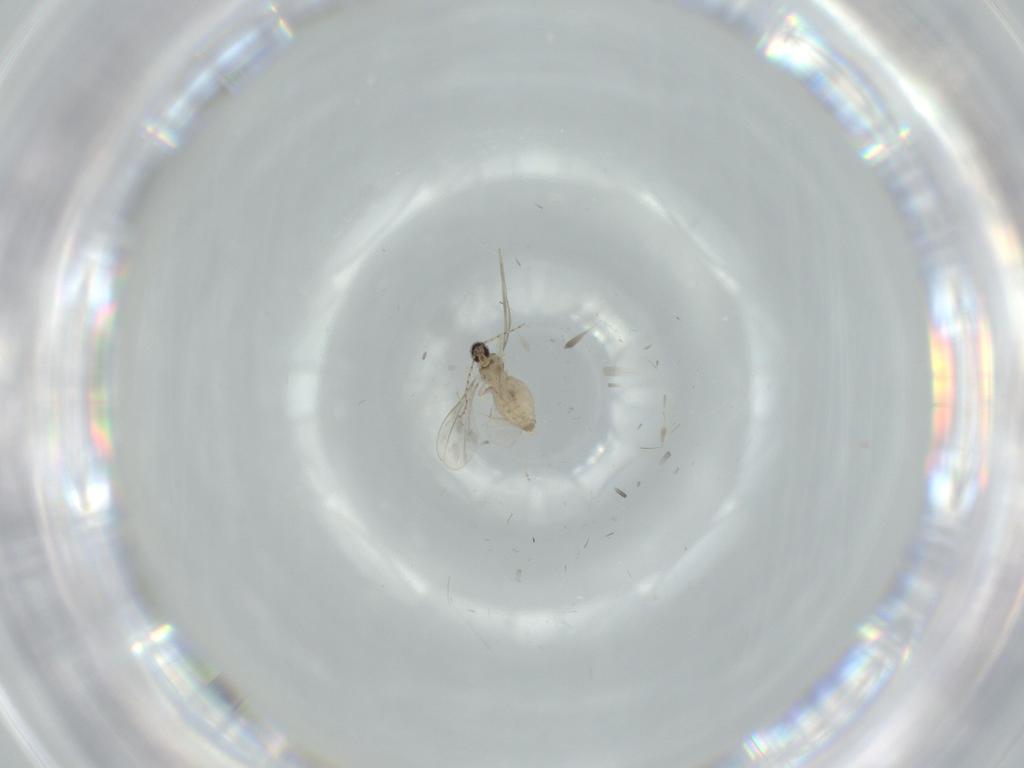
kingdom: Animalia
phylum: Arthropoda
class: Insecta
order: Diptera
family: Cecidomyiidae
